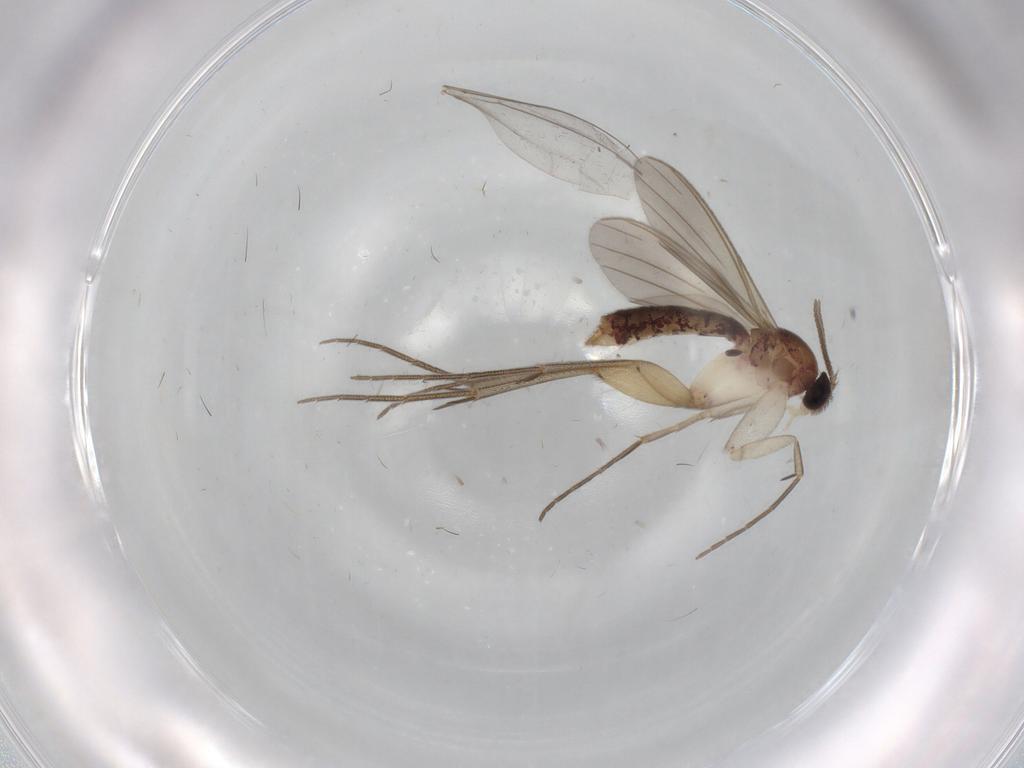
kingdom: Animalia
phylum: Arthropoda
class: Insecta
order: Diptera
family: Ceratopogonidae
